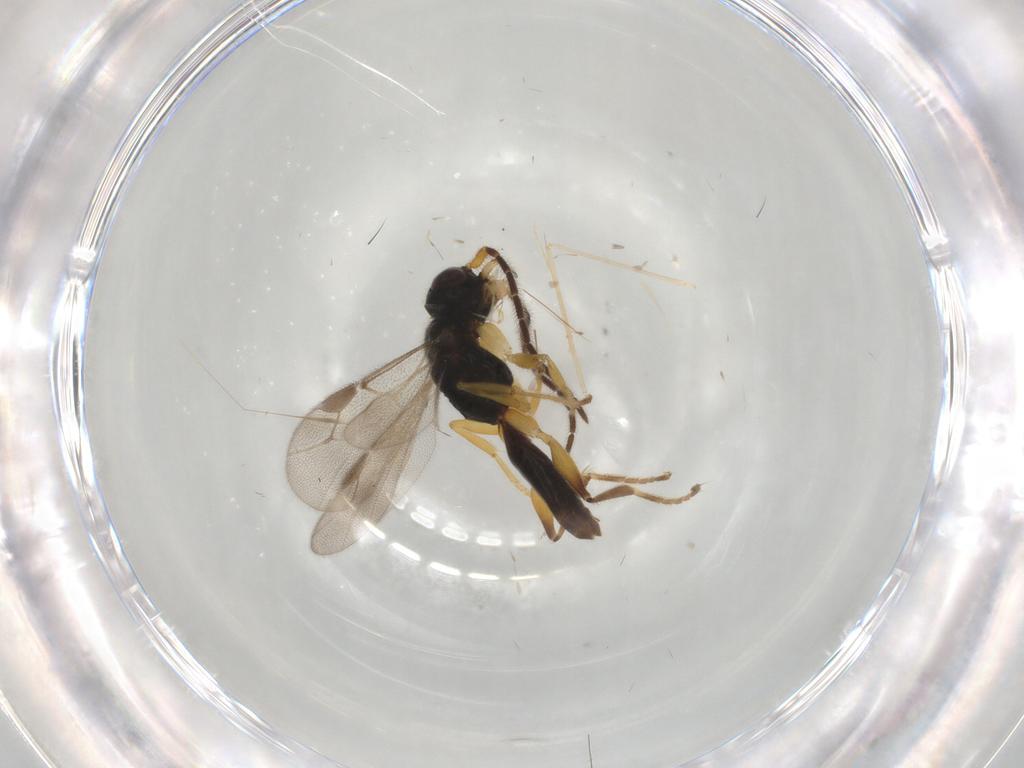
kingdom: Animalia
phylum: Arthropoda
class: Insecta
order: Hymenoptera
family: Dryinidae
